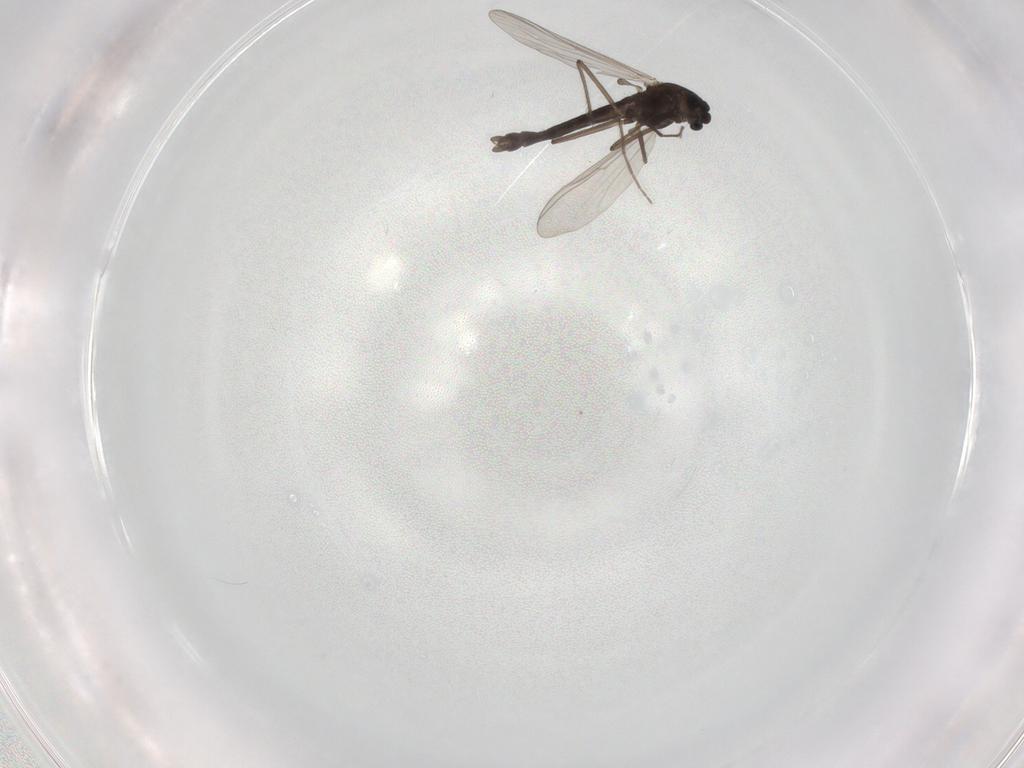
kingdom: Animalia
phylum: Arthropoda
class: Insecta
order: Diptera
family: Chironomidae
